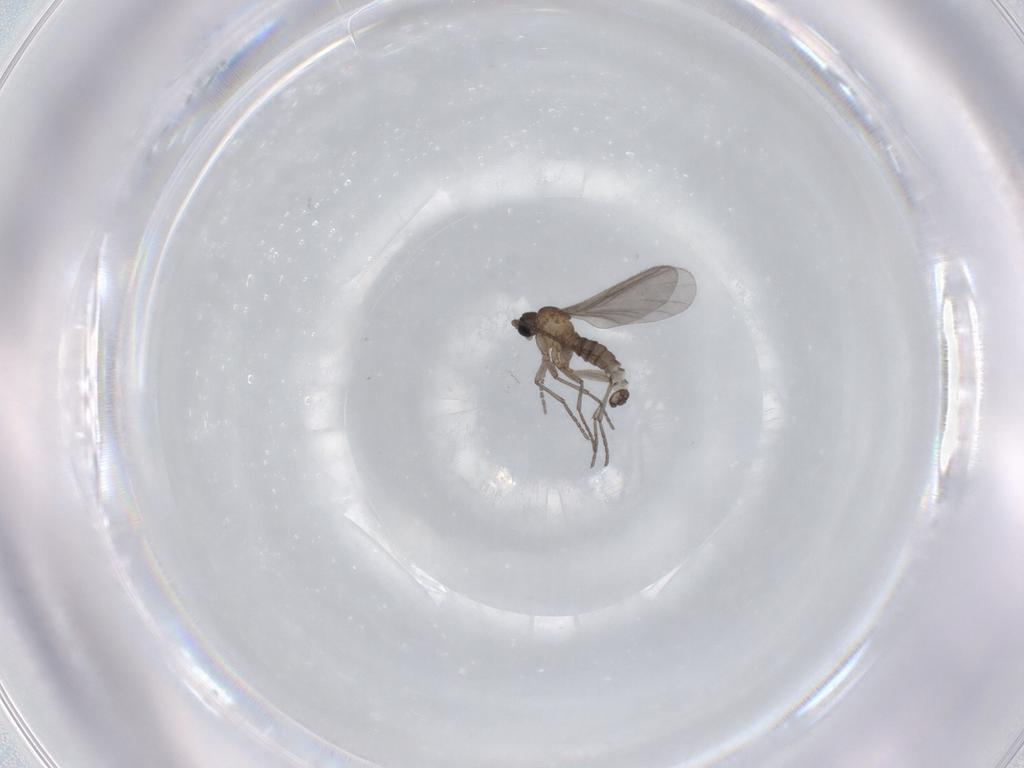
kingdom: Animalia
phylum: Arthropoda
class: Insecta
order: Diptera
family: Sciaridae
